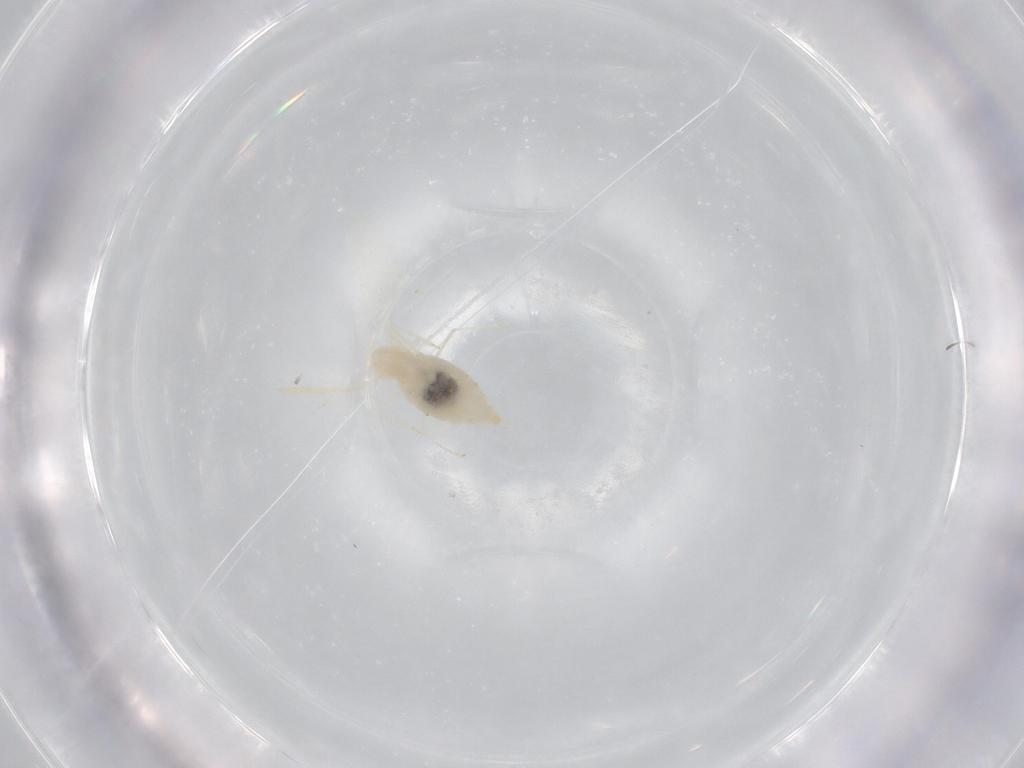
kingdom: Animalia
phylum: Arthropoda
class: Insecta
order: Diptera
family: Cecidomyiidae
